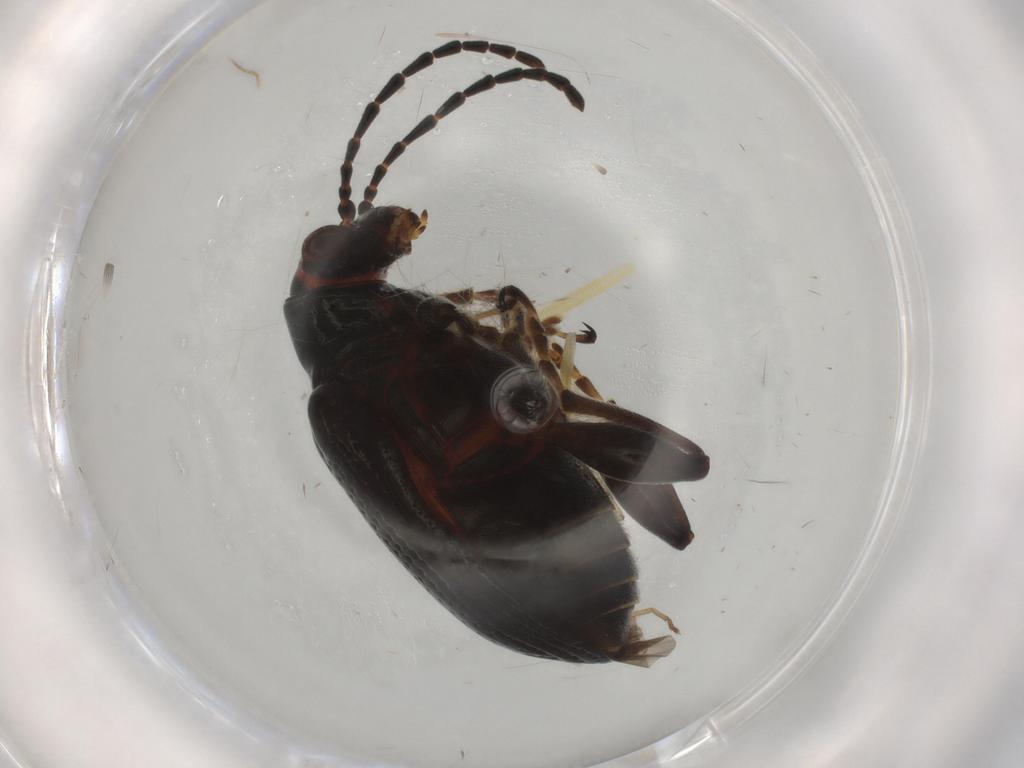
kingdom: Animalia
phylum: Arthropoda
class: Insecta
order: Coleoptera
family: Chrysomelidae
